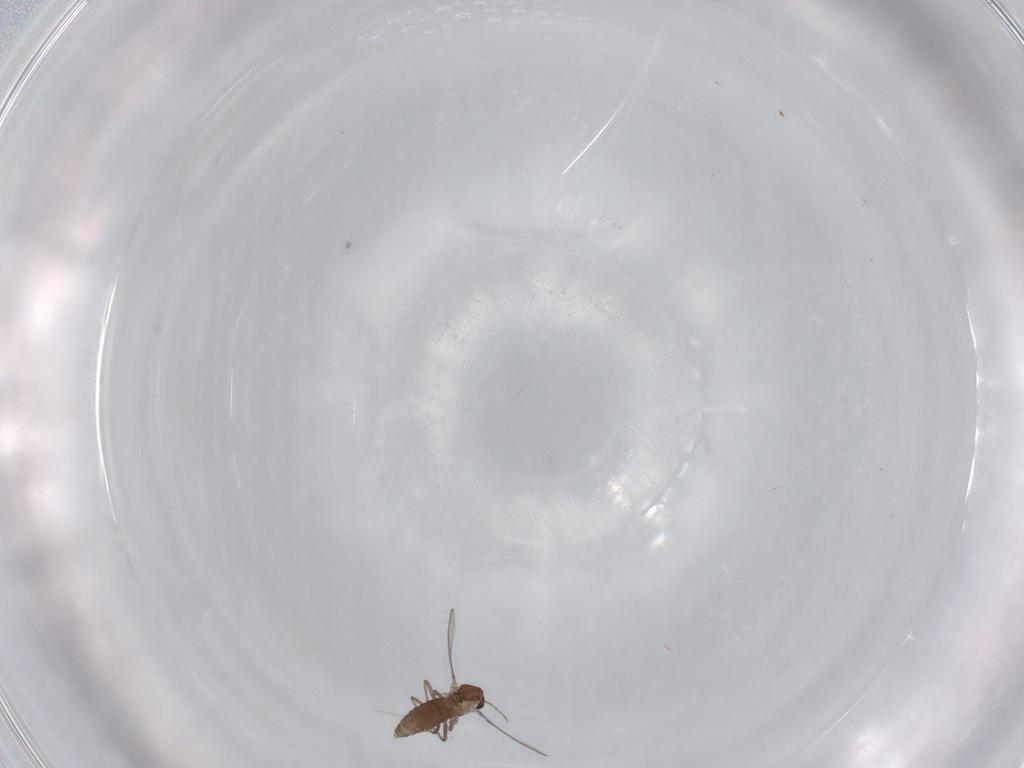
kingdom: Animalia
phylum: Arthropoda
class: Insecta
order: Diptera
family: Chironomidae
